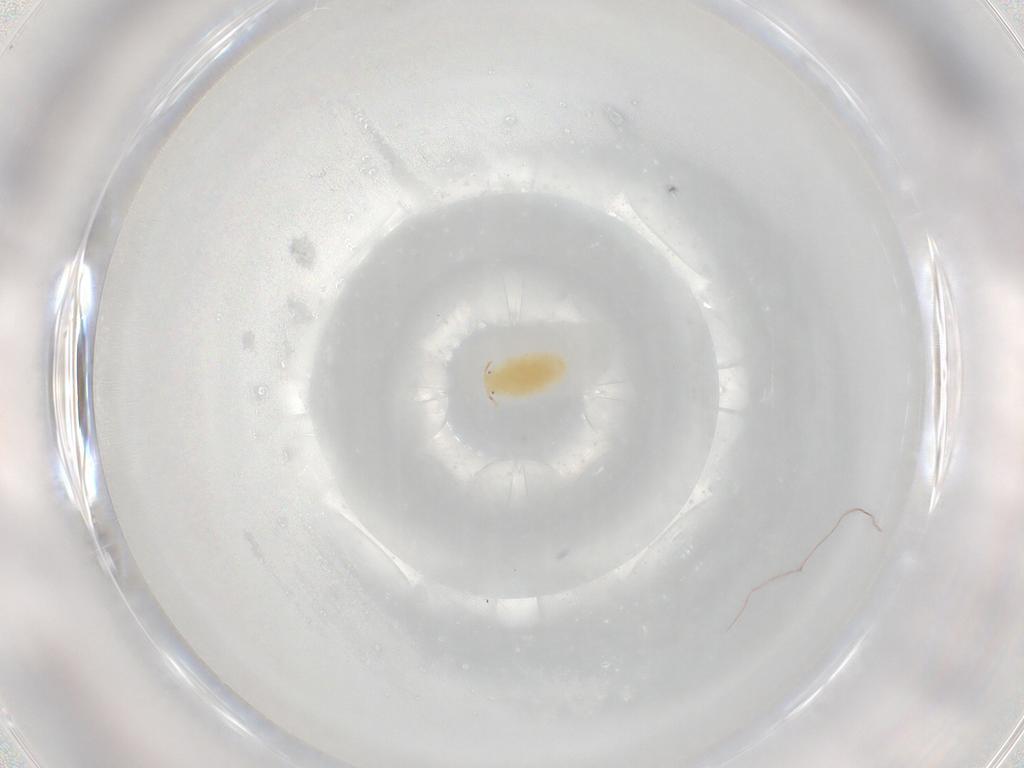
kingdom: Animalia
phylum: Arthropoda
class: Insecta
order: Hemiptera
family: Pseudococcidae
